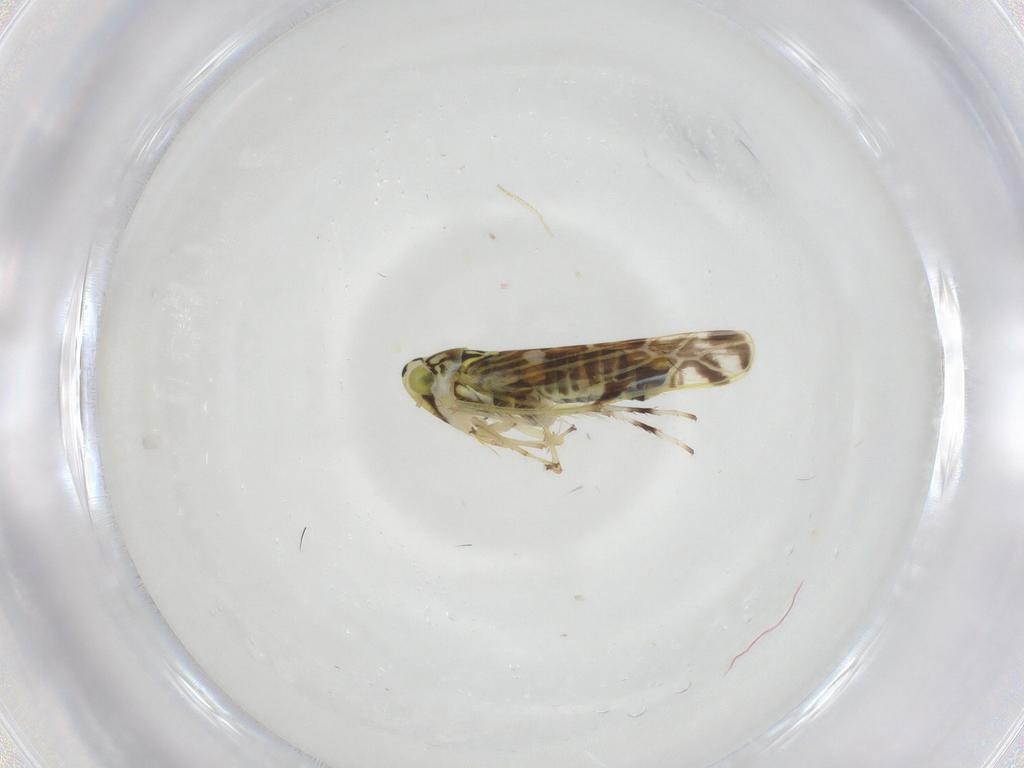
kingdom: Animalia
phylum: Arthropoda
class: Insecta
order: Hemiptera
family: Cicadellidae
